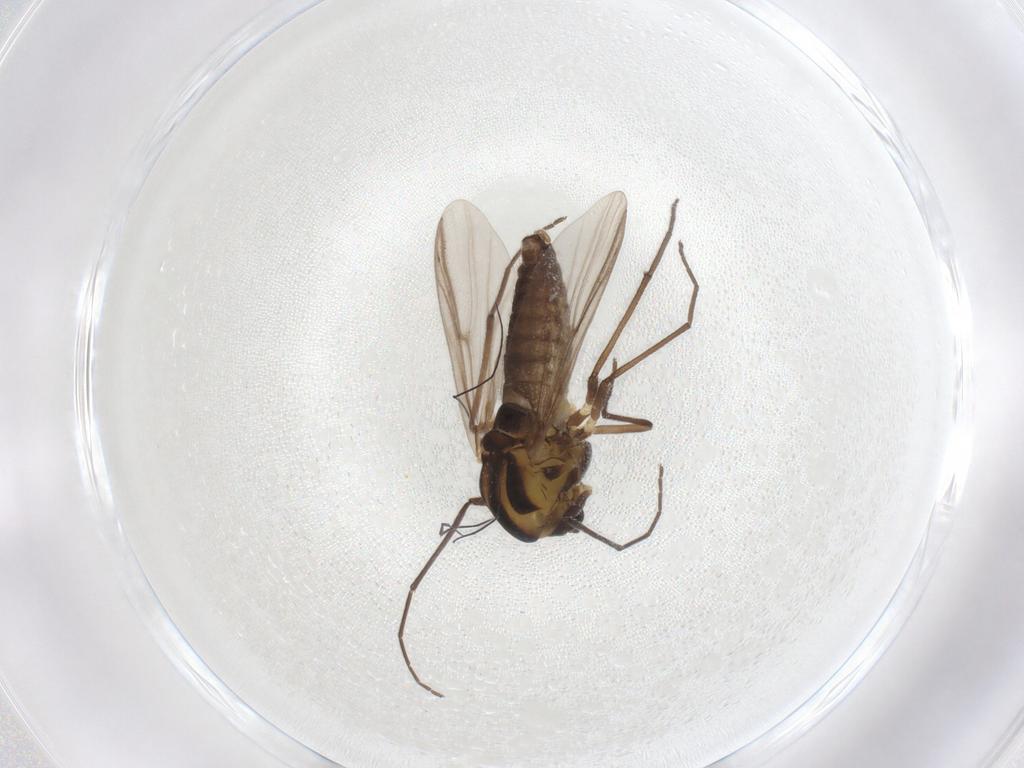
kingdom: Animalia
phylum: Arthropoda
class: Insecta
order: Diptera
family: Chironomidae
